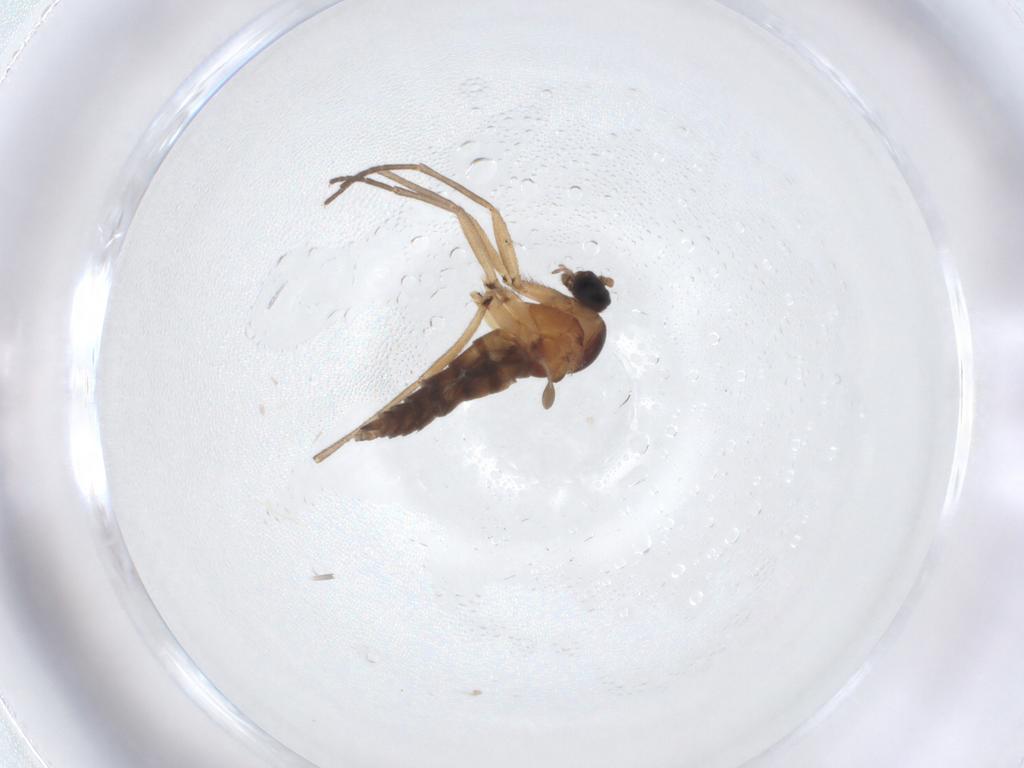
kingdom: Animalia
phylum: Arthropoda
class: Insecta
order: Diptera
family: Sciaridae
